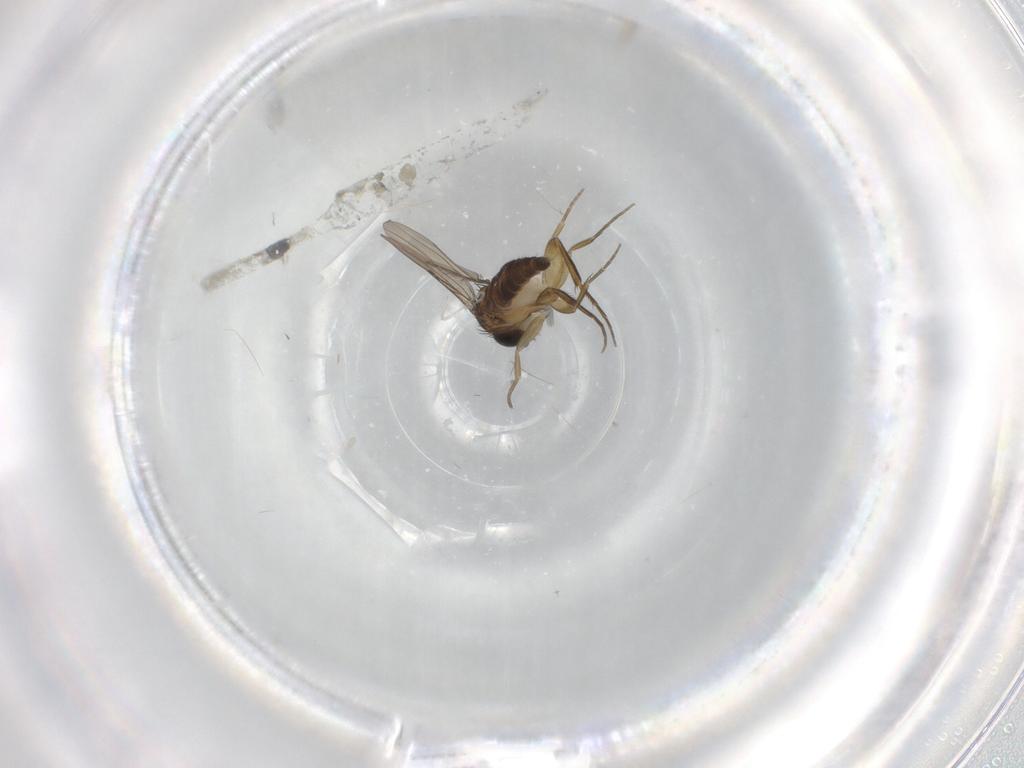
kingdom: Animalia
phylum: Arthropoda
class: Insecta
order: Diptera
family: Phoridae
